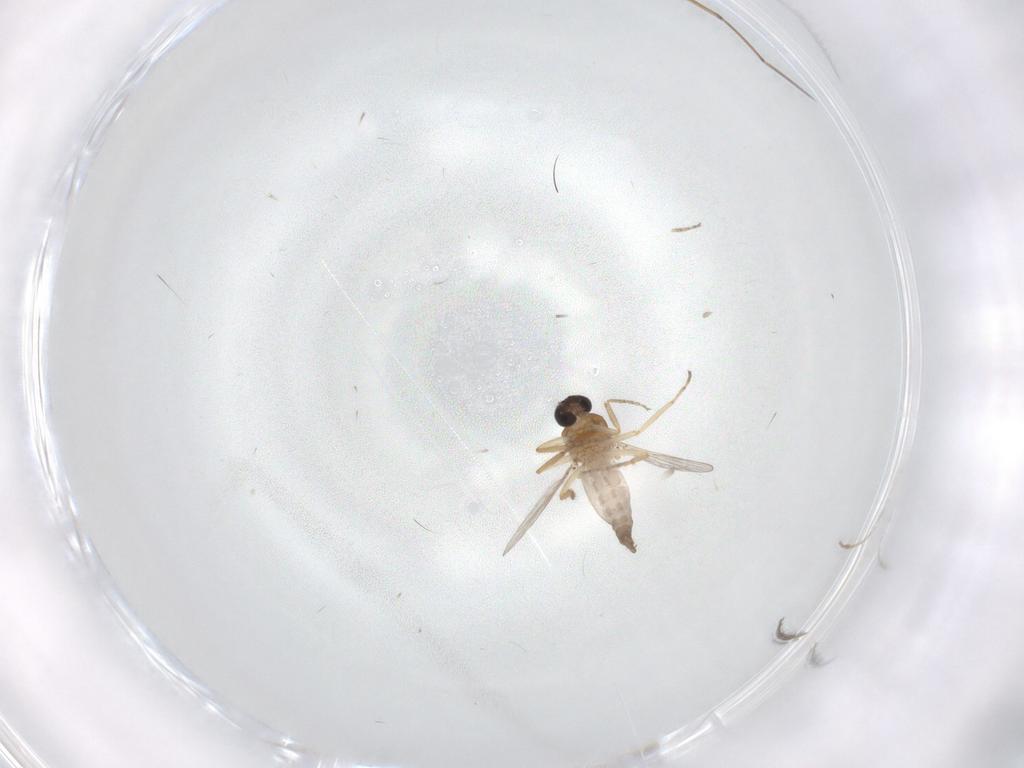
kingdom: Animalia
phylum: Arthropoda
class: Insecta
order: Diptera
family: Ceratopogonidae
